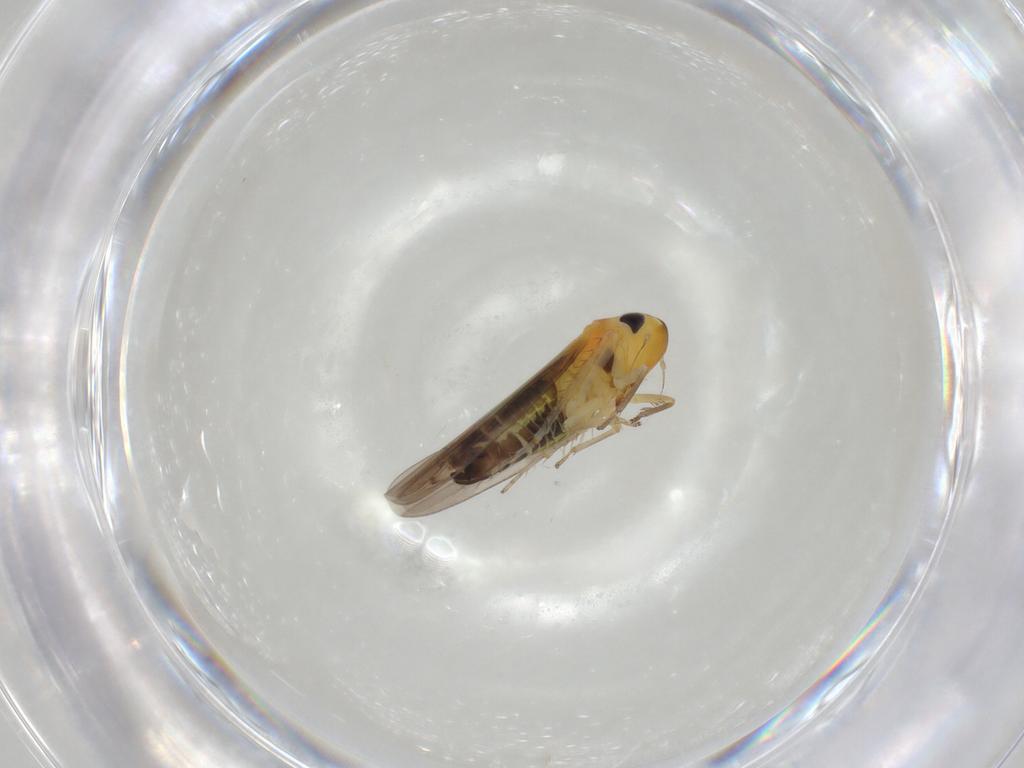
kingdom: Animalia
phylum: Arthropoda
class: Insecta
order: Hemiptera
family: Cicadellidae
